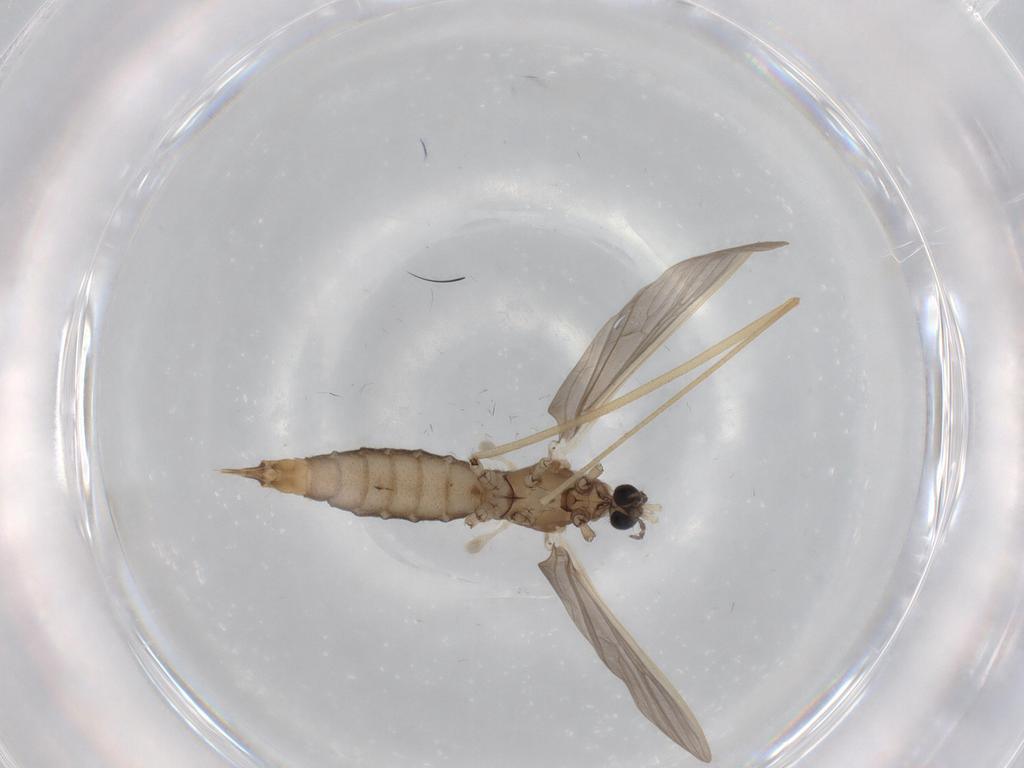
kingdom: Animalia
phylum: Arthropoda
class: Insecta
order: Diptera
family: Limoniidae
